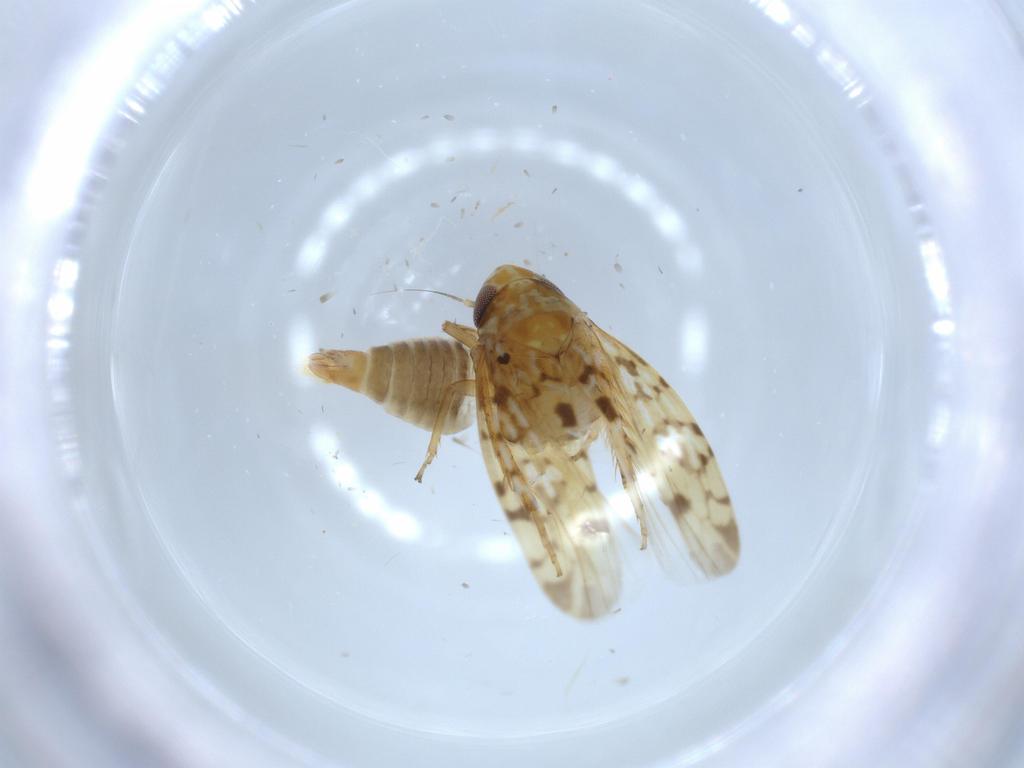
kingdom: Animalia
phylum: Arthropoda
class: Insecta
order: Hemiptera
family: Cicadellidae
